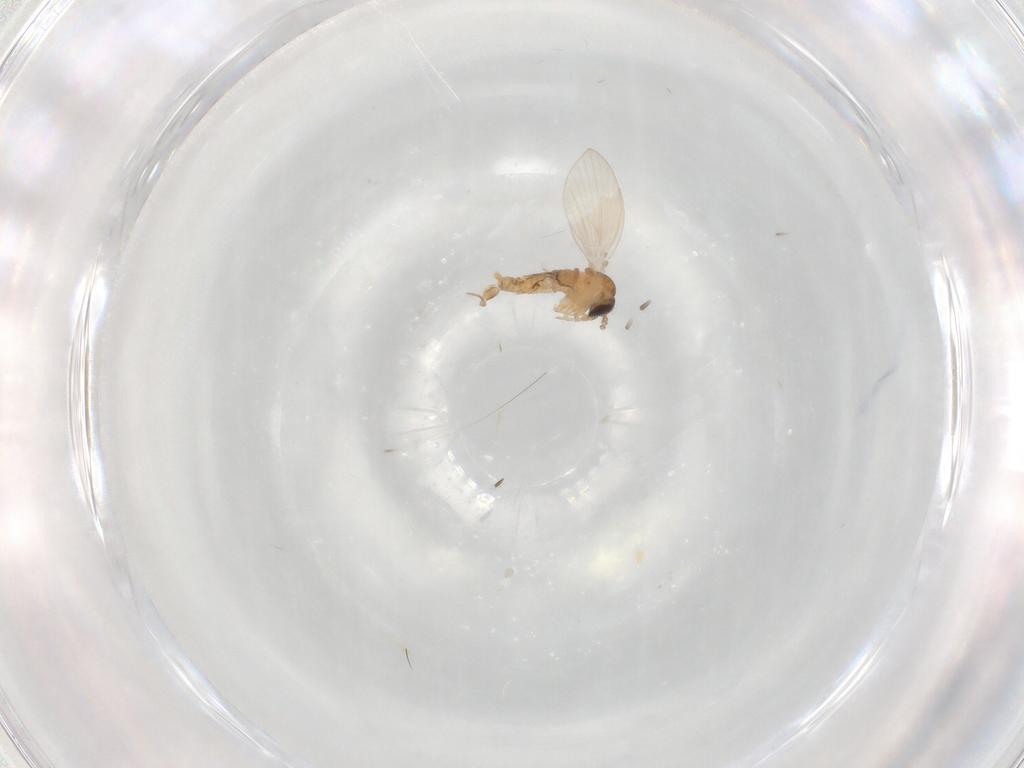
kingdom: Animalia
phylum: Arthropoda
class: Insecta
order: Diptera
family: Psychodidae
